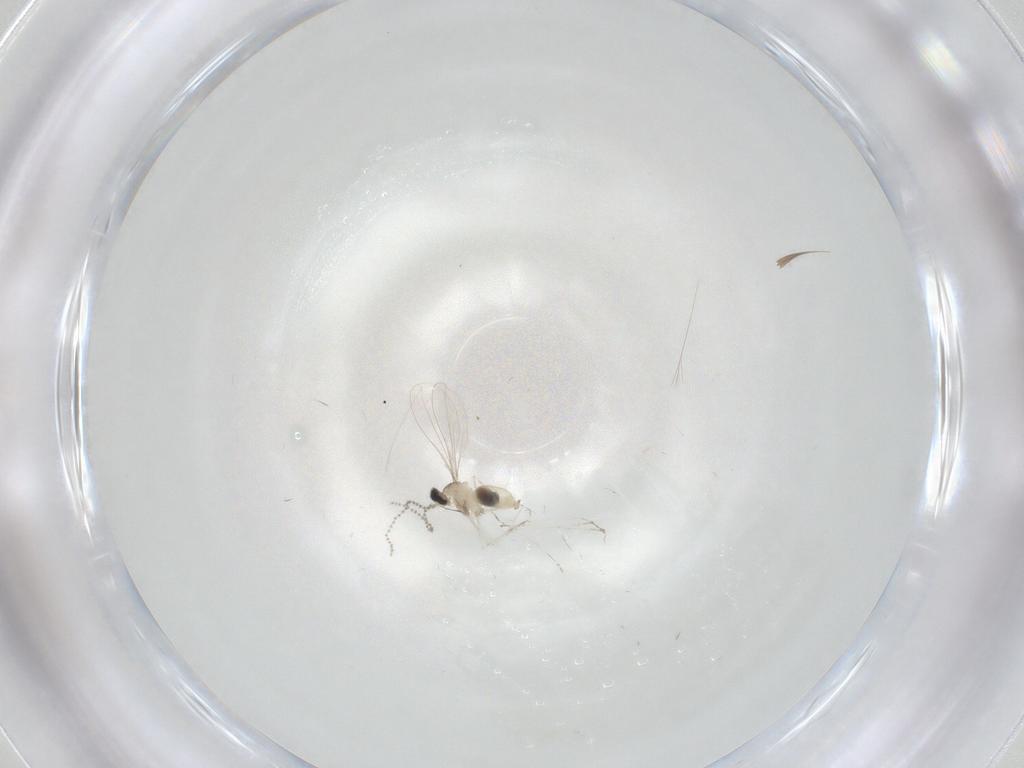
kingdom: Animalia
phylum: Arthropoda
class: Insecta
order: Diptera
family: Cecidomyiidae
